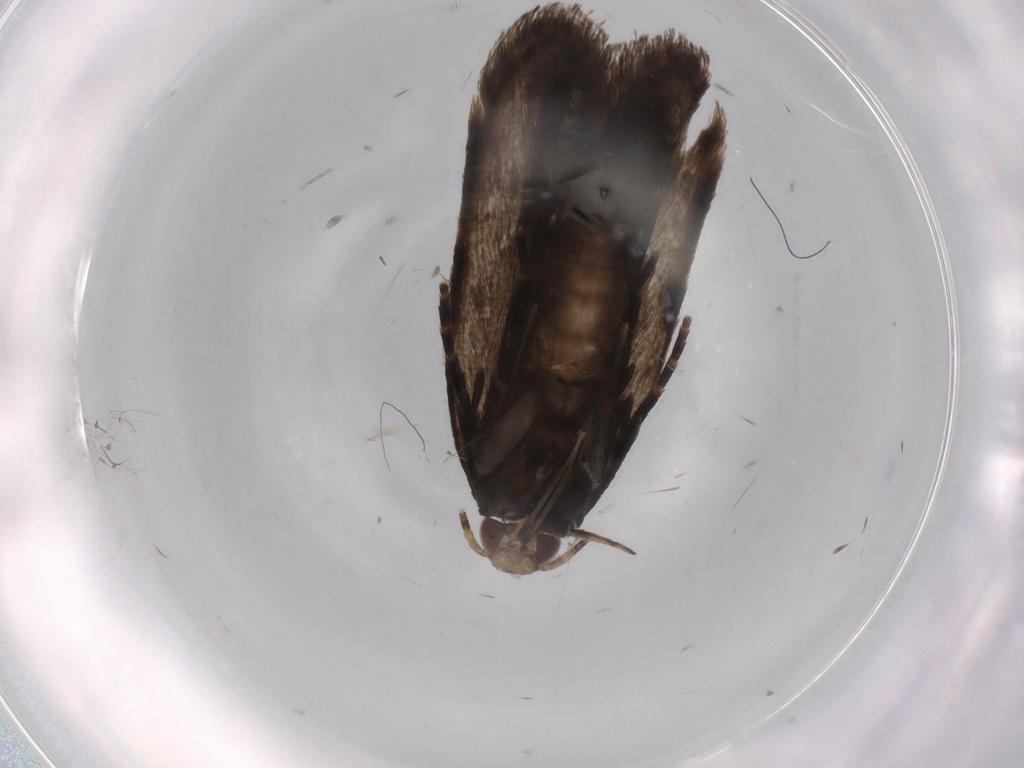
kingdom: Animalia
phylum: Arthropoda
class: Insecta
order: Lepidoptera
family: Gelechiidae
